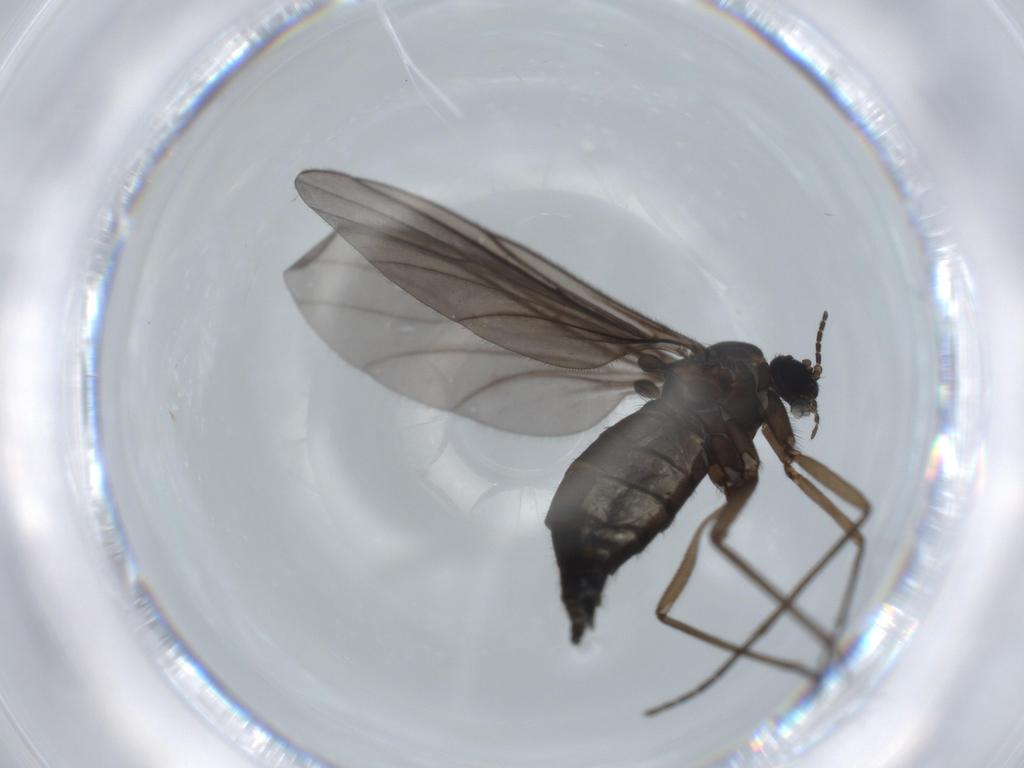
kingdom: Animalia
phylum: Arthropoda
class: Insecta
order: Diptera
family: Sciaridae
